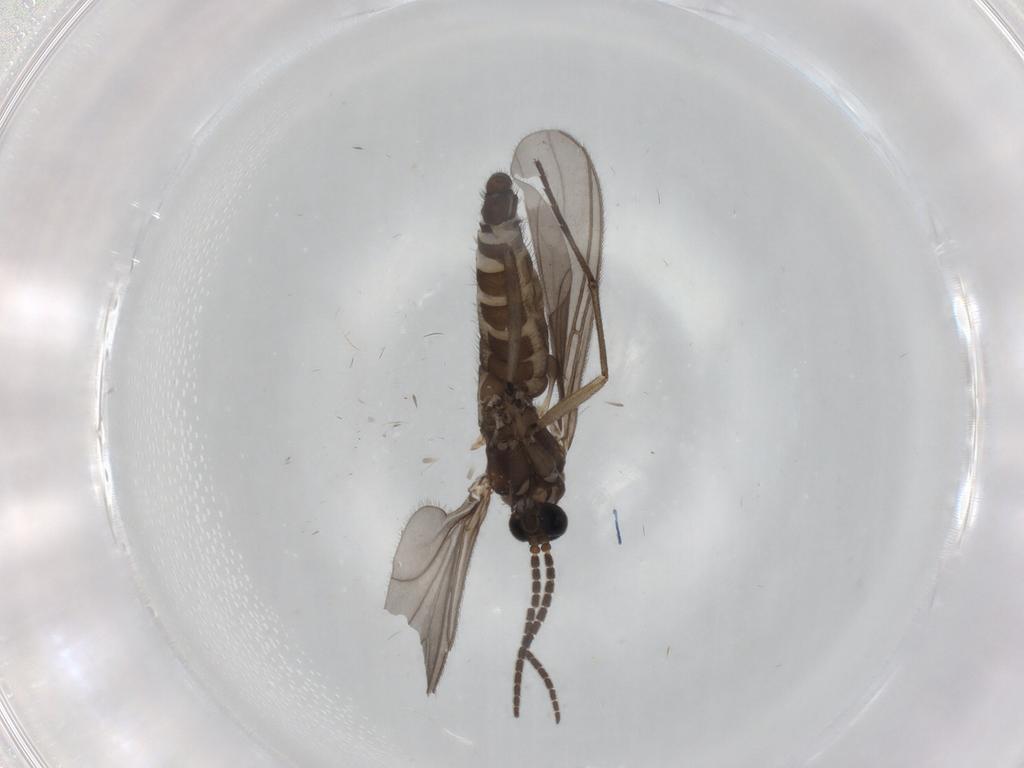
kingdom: Animalia
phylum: Arthropoda
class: Insecta
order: Diptera
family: Sciaridae
